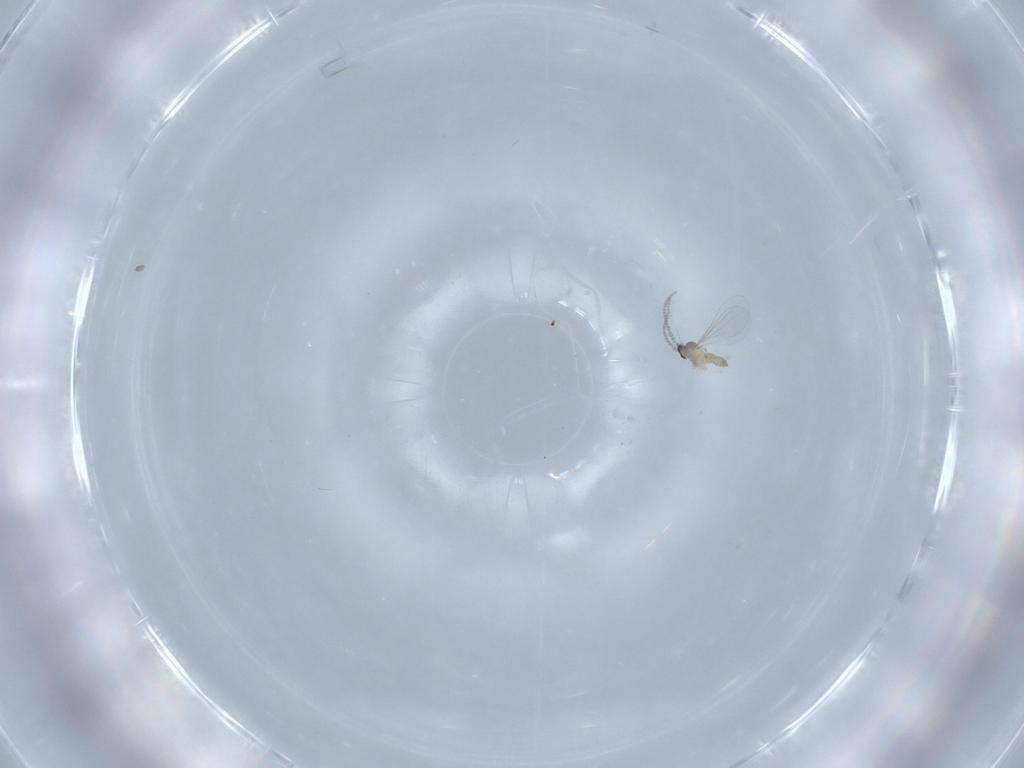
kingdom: Animalia
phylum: Arthropoda
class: Insecta
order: Diptera
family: Cecidomyiidae
